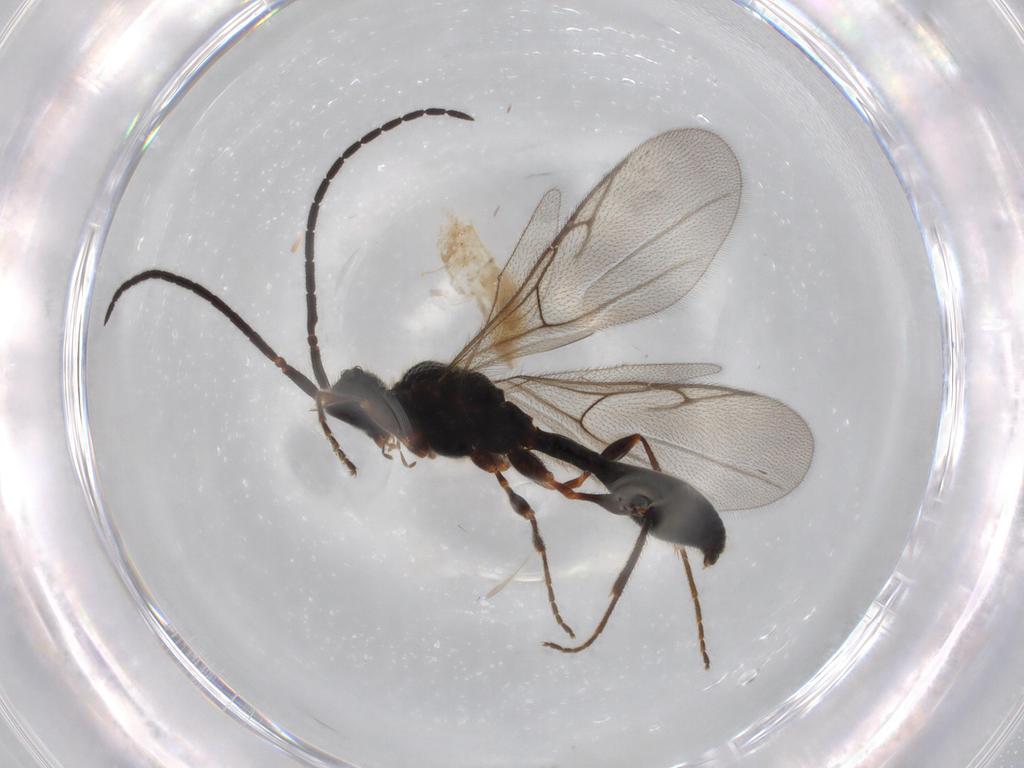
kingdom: Animalia
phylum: Arthropoda
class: Insecta
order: Hymenoptera
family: Diapriidae
